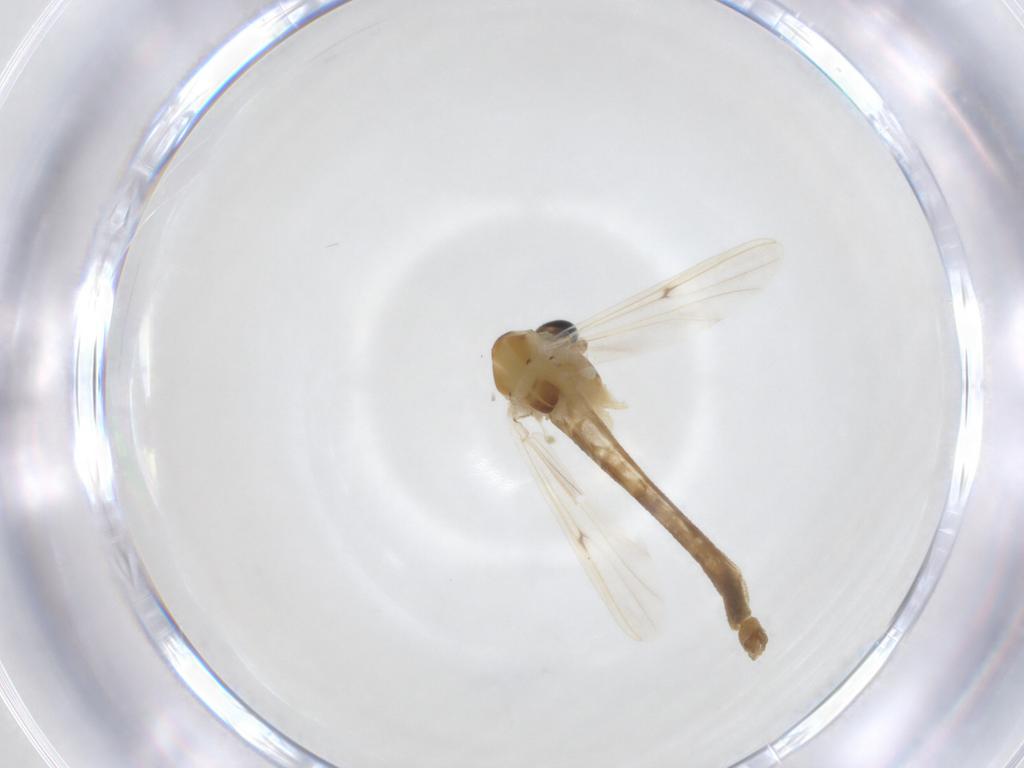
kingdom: Animalia
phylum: Arthropoda
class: Insecta
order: Diptera
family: Chironomidae
